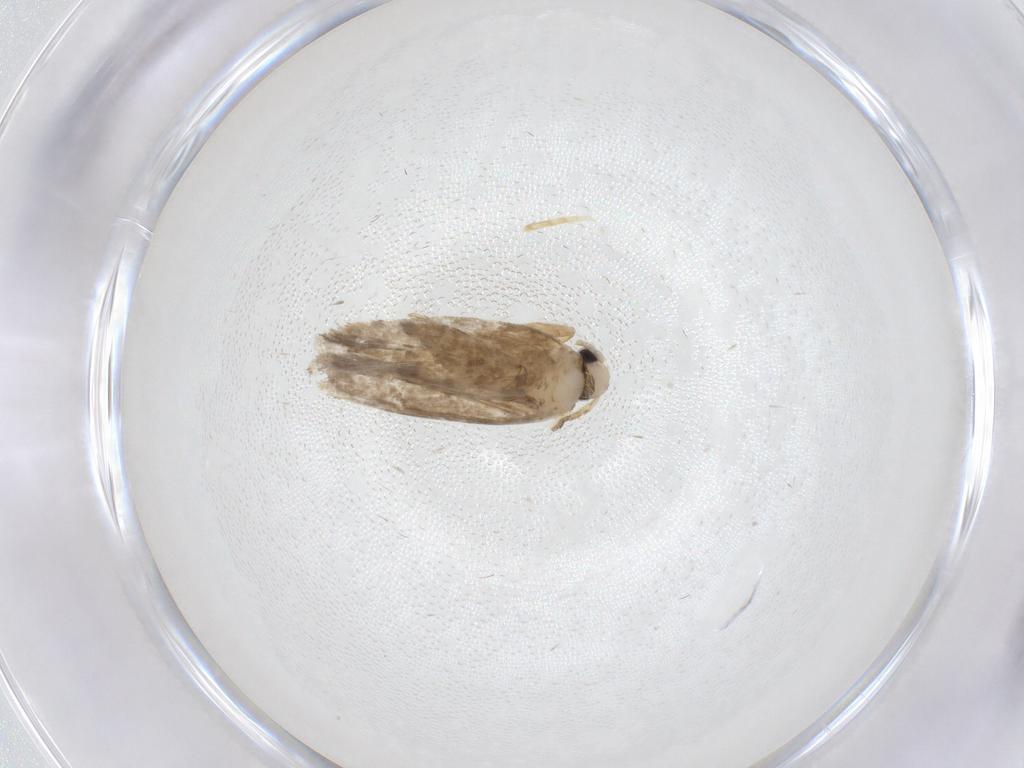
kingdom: Animalia
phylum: Arthropoda
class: Insecta
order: Lepidoptera
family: Psychidae
